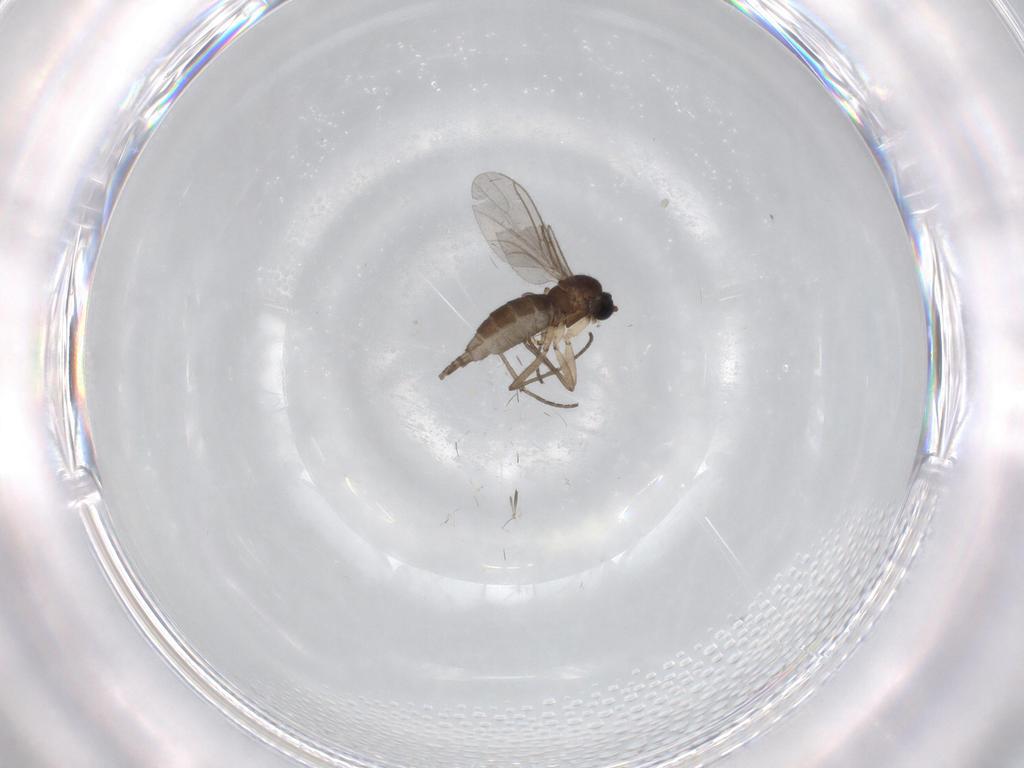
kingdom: Animalia
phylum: Arthropoda
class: Insecta
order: Diptera
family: Sciaridae
